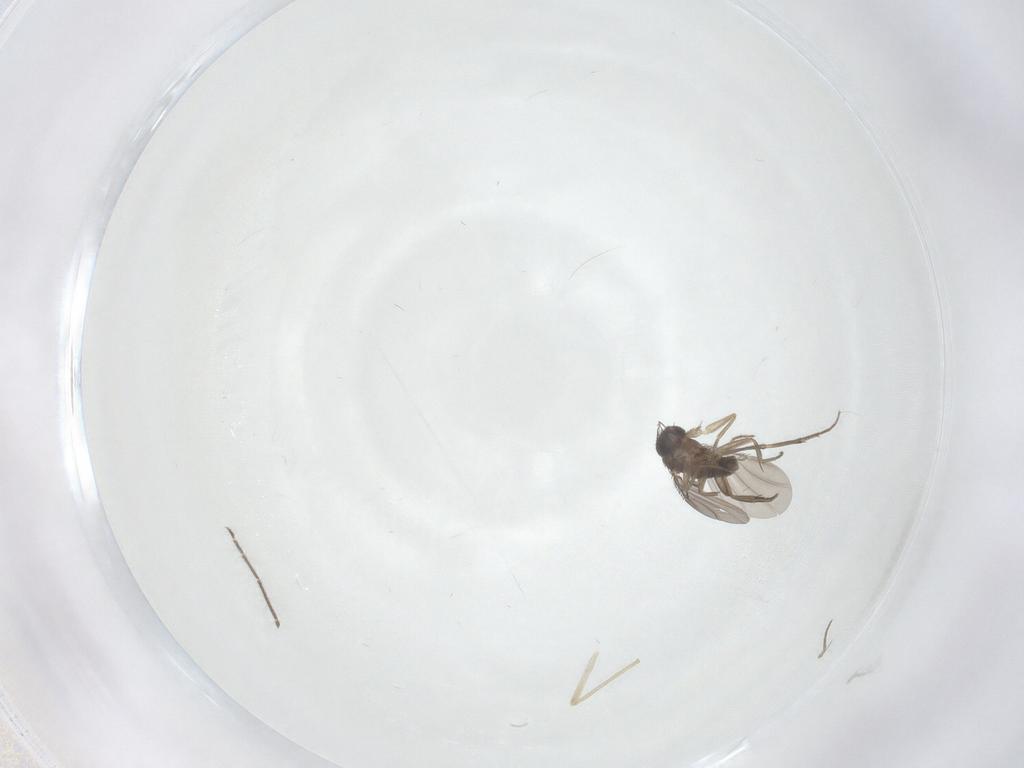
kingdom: Animalia
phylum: Arthropoda
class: Insecta
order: Diptera
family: Phoridae
